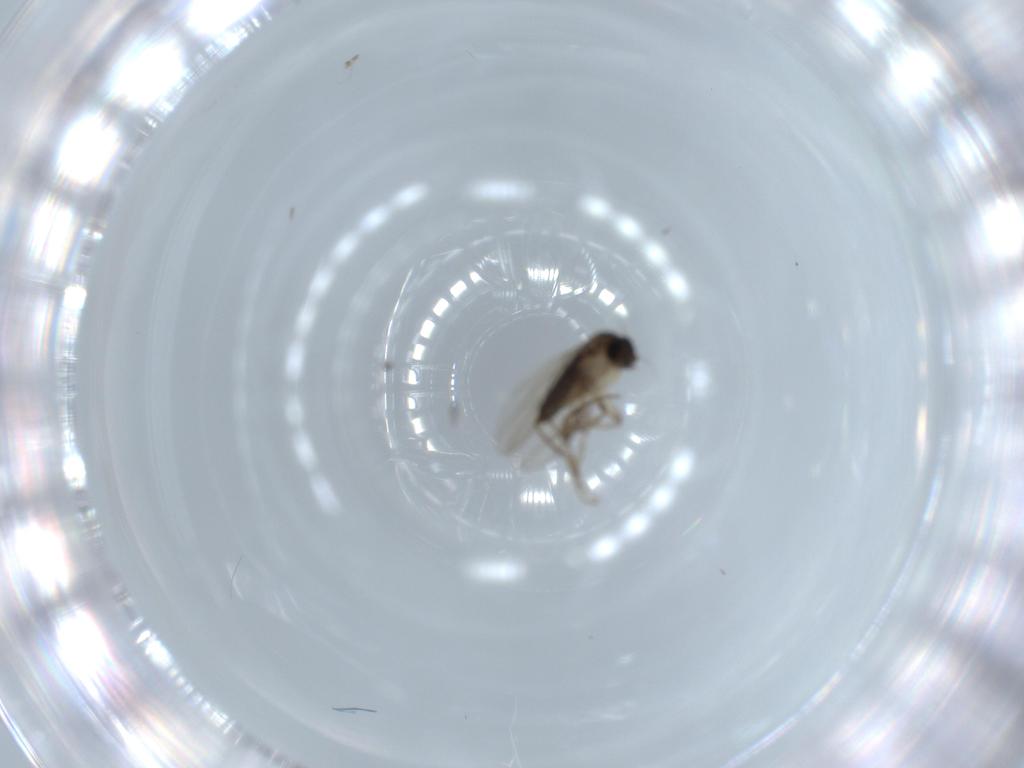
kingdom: Animalia
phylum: Arthropoda
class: Insecta
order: Diptera
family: Phoridae
